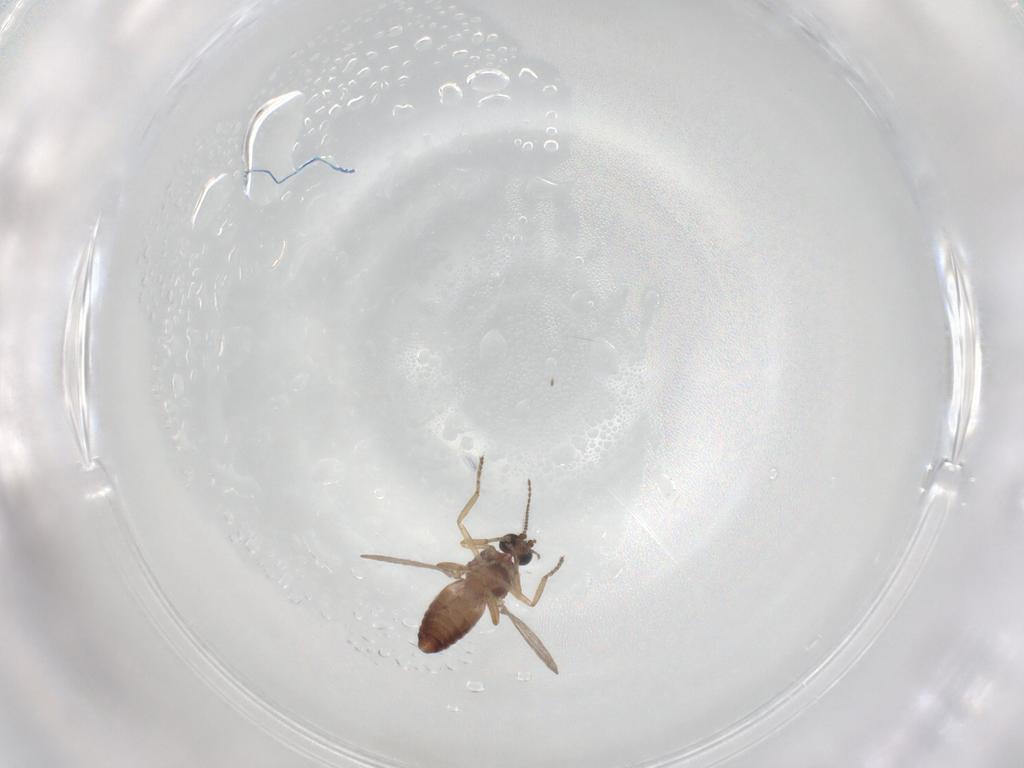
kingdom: Animalia
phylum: Arthropoda
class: Insecta
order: Diptera
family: Ceratopogonidae
